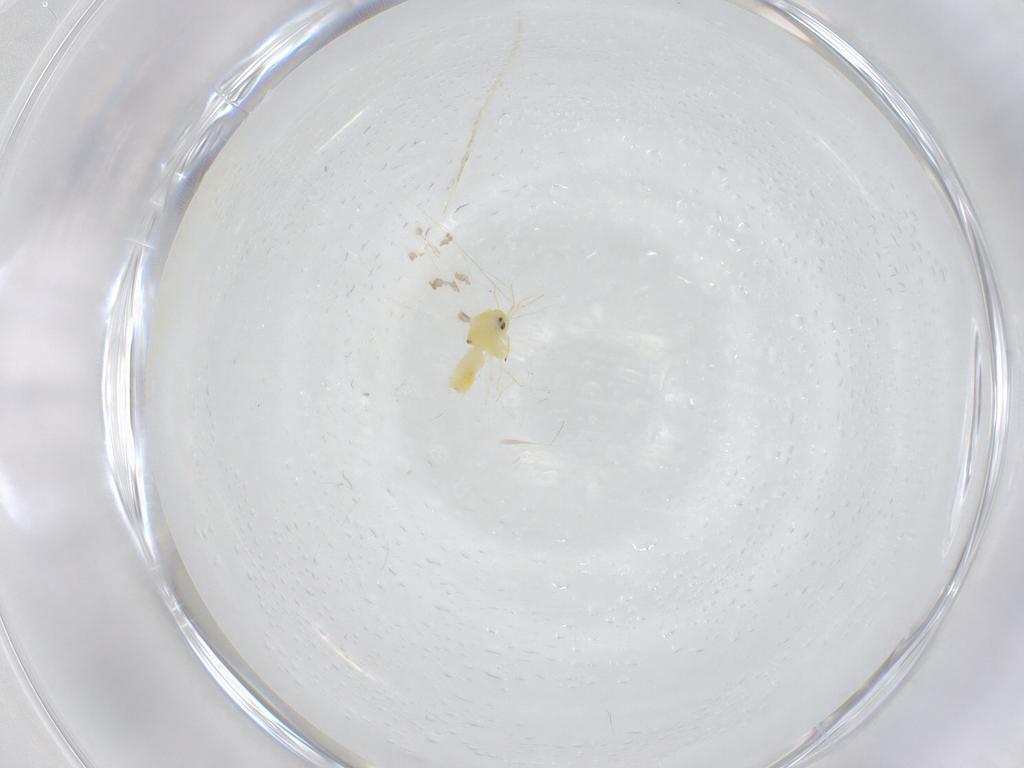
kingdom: Animalia
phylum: Arthropoda
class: Insecta
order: Hemiptera
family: Aleyrodidae
